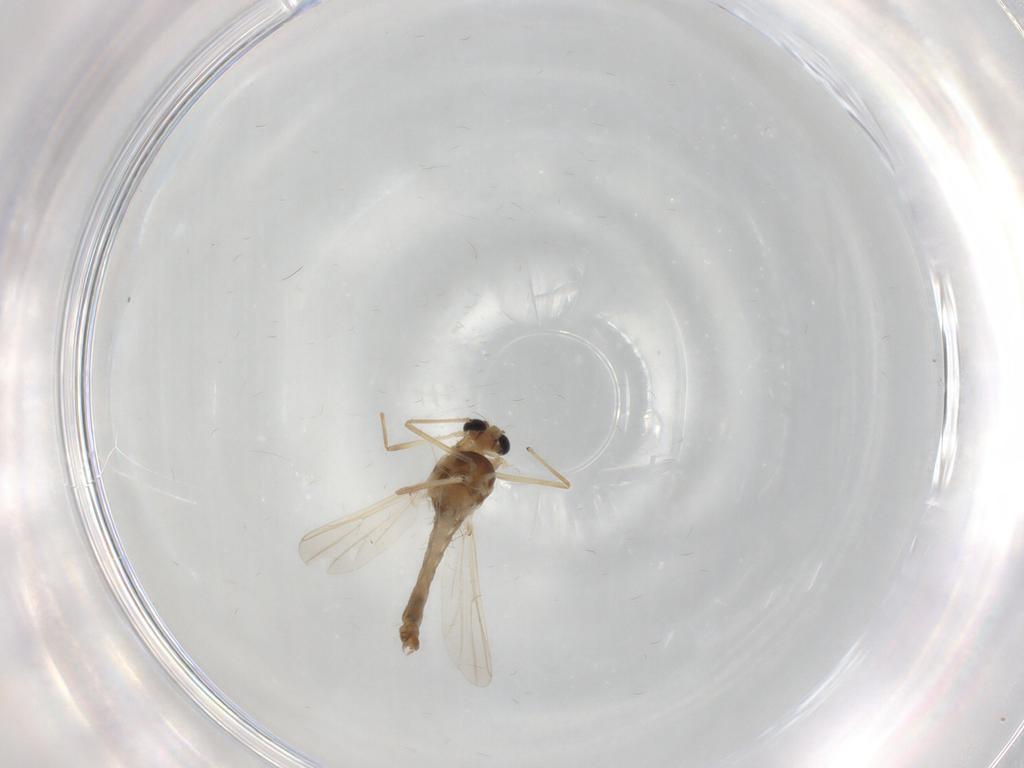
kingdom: Animalia
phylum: Arthropoda
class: Insecta
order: Diptera
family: Chironomidae
